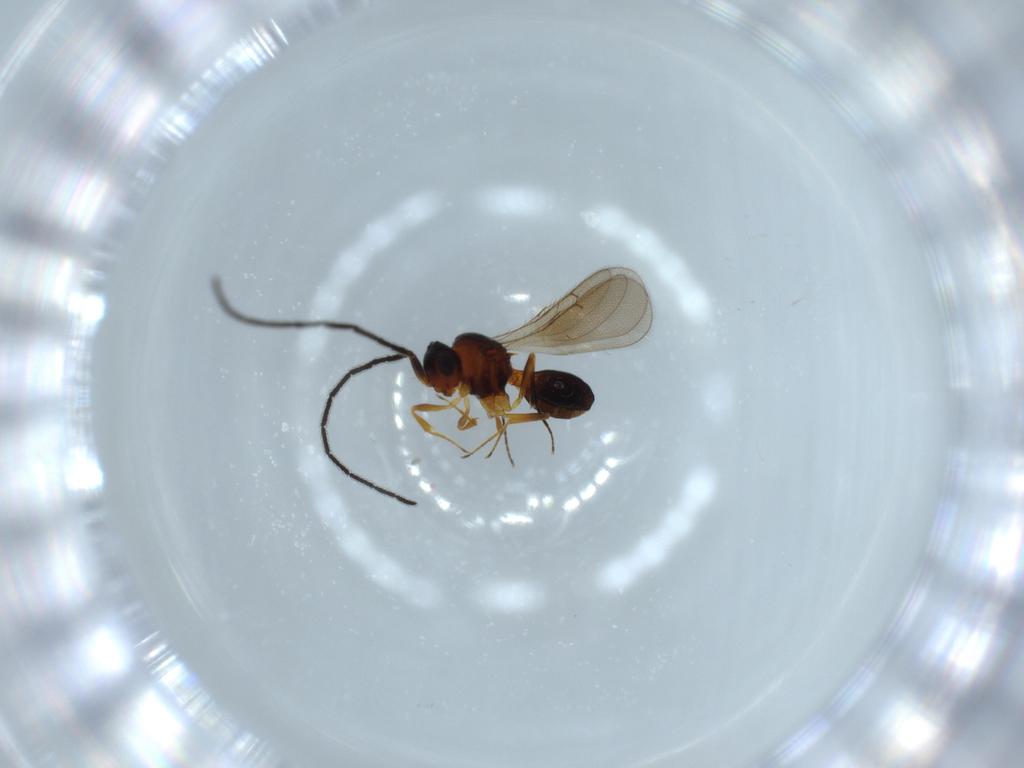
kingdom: Animalia
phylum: Arthropoda
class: Insecta
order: Hymenoptera
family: Scelionidae
